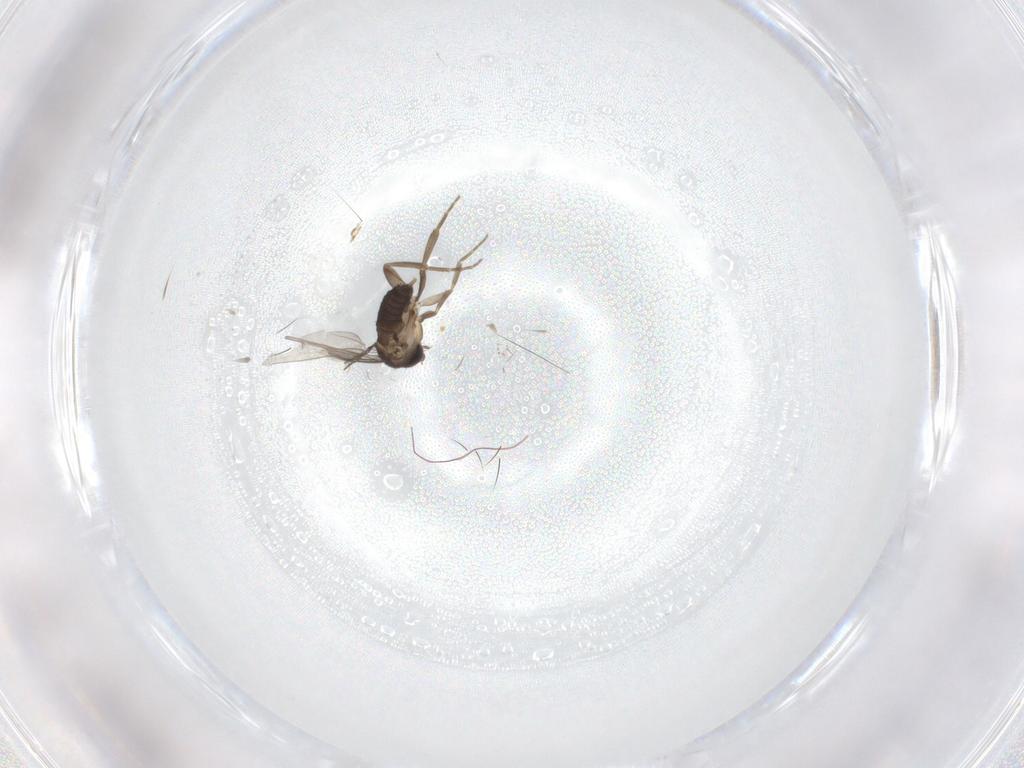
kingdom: Animalia
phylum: Arthropoda
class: Insecta
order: Diptera
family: Phoridae
